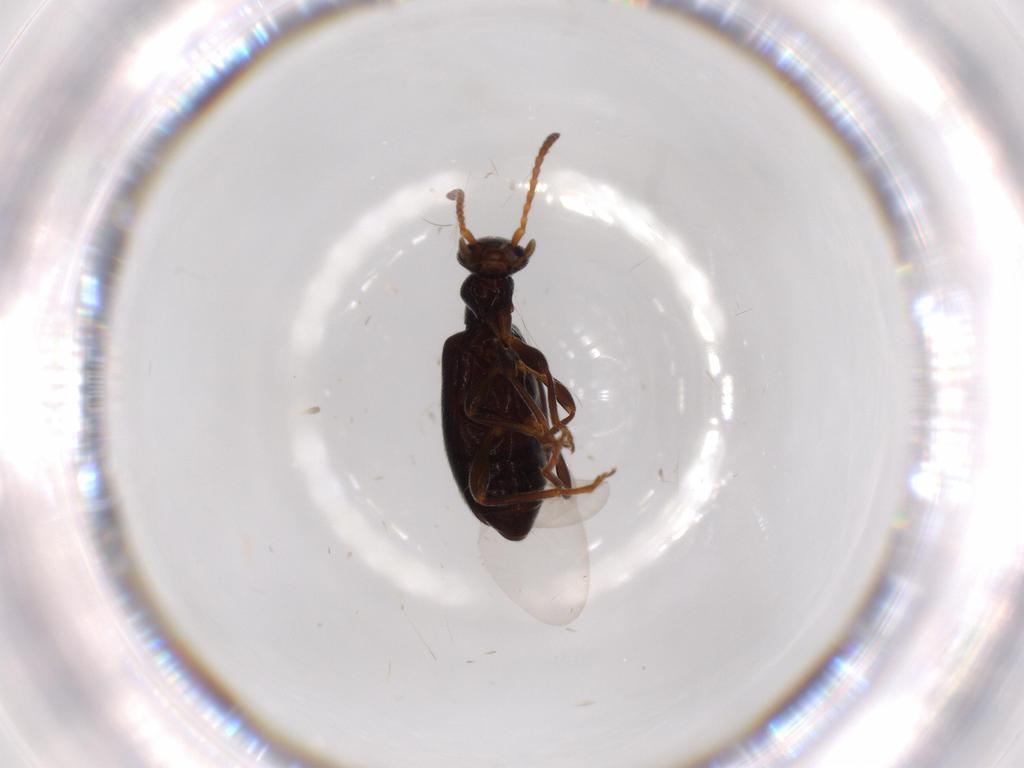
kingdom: Animalia
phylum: Arthropoda
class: Insecta
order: Coleoptera
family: Anthicidae
